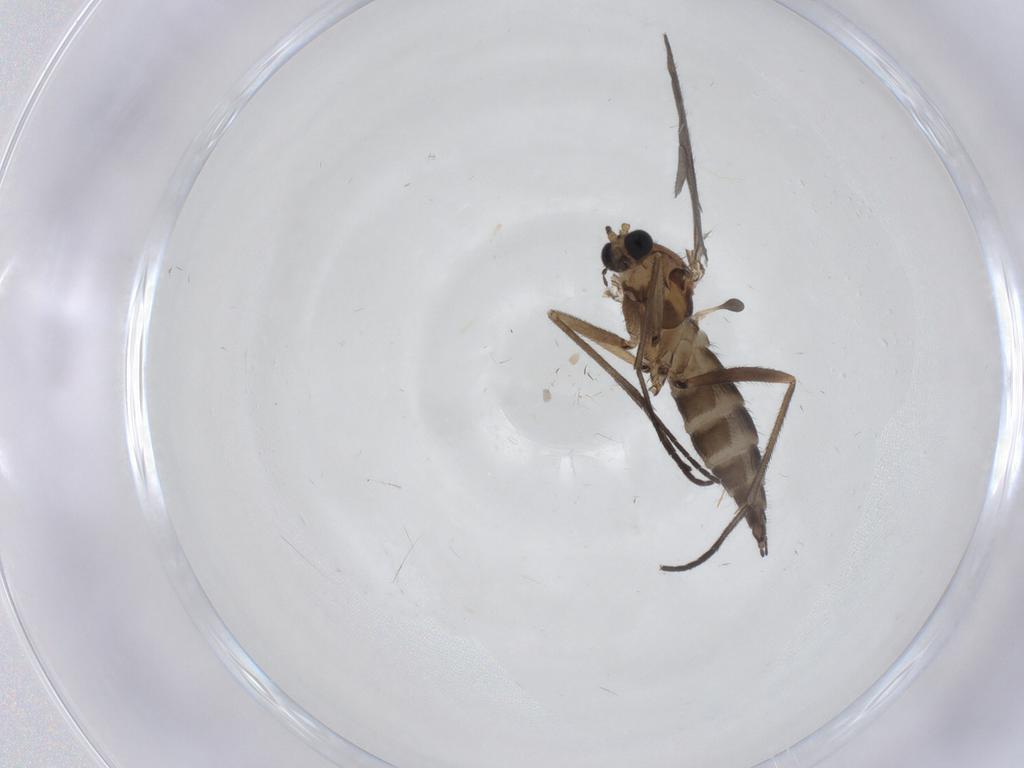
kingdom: Animalia
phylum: Arthropoda
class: Insecta
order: Diptera
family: Sciaridae
